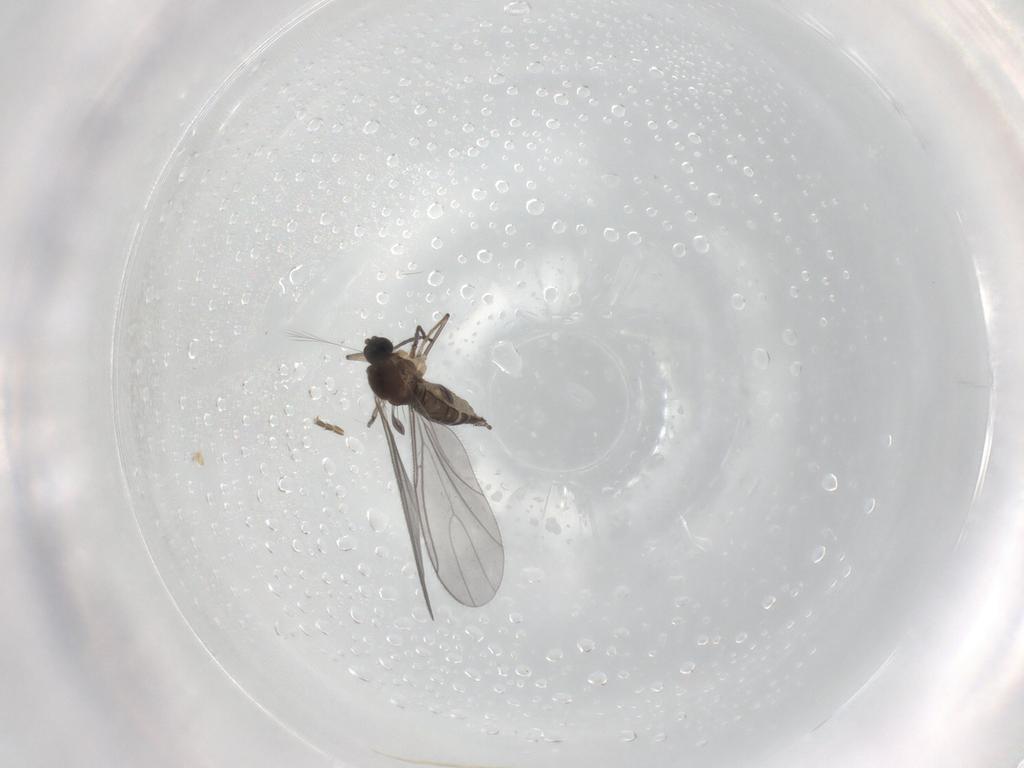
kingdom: Animalia
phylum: Arthropoda
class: Insecta
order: Diptera
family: Sciaridae
